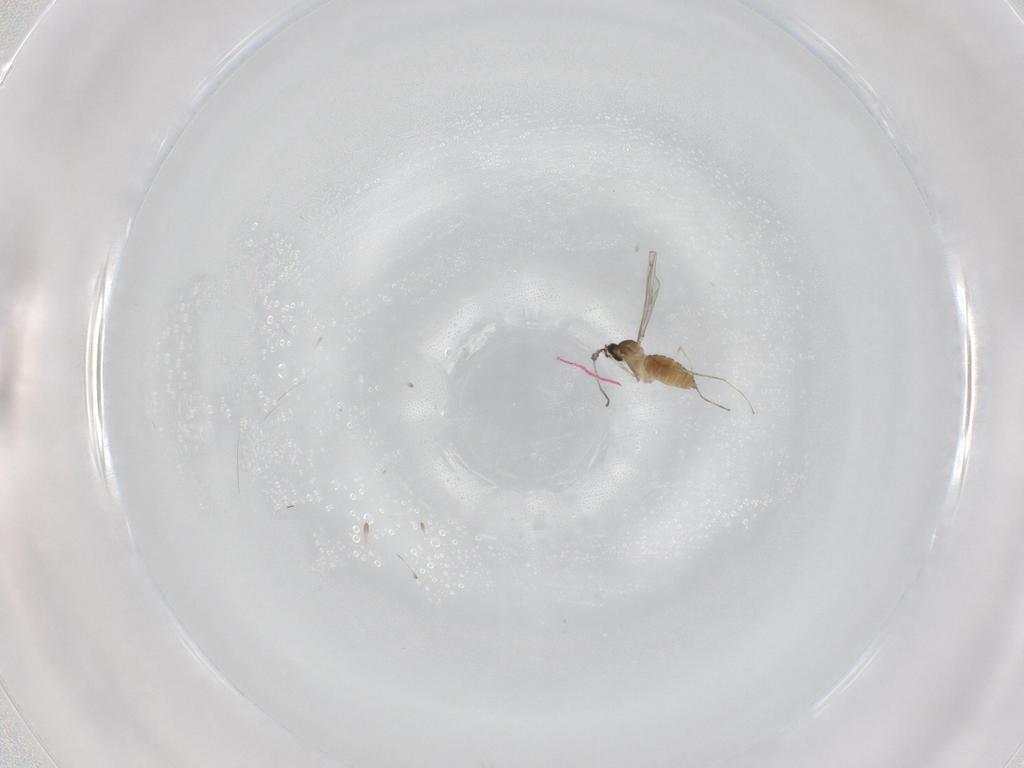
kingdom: Animalia
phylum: Arthropoda
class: Insecta
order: Diptera
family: Cecidomyiidae
